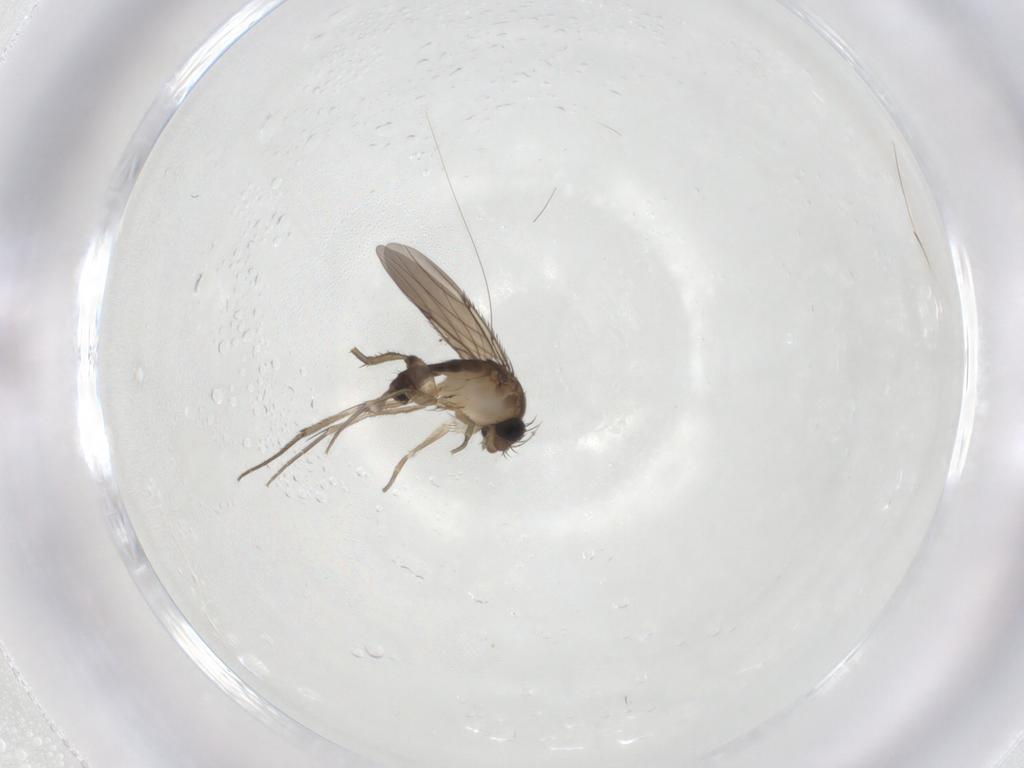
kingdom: Animalia
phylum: Arthropoda
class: Insecta
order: Diptera
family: Phoridae
